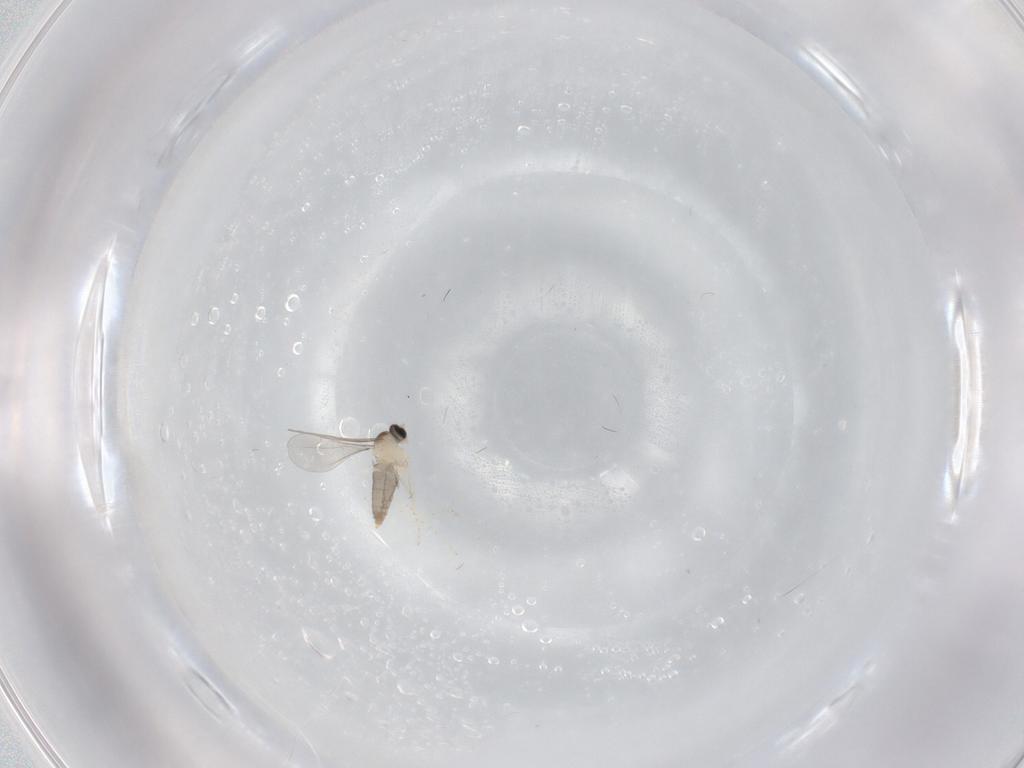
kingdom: Animalia
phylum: Arthropoda
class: Insecta
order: Diptera
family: Cecidomyiidae
